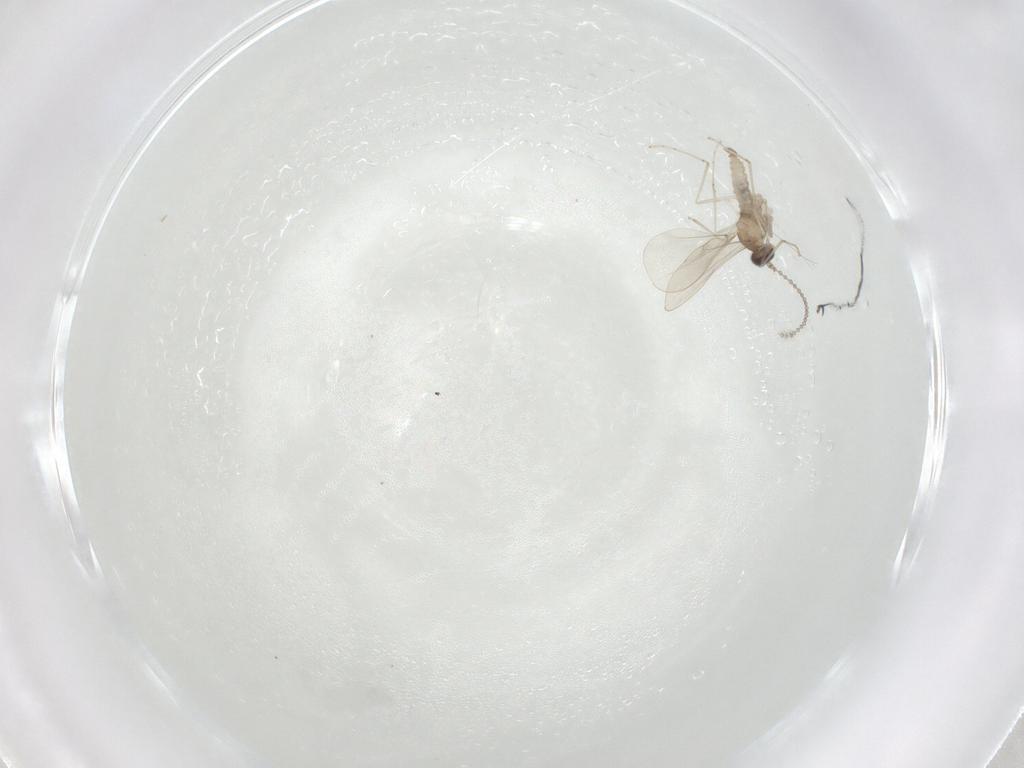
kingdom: Animalia
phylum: Arthropoda
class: Insecta
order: Diptera
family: Cecidomyiidae
